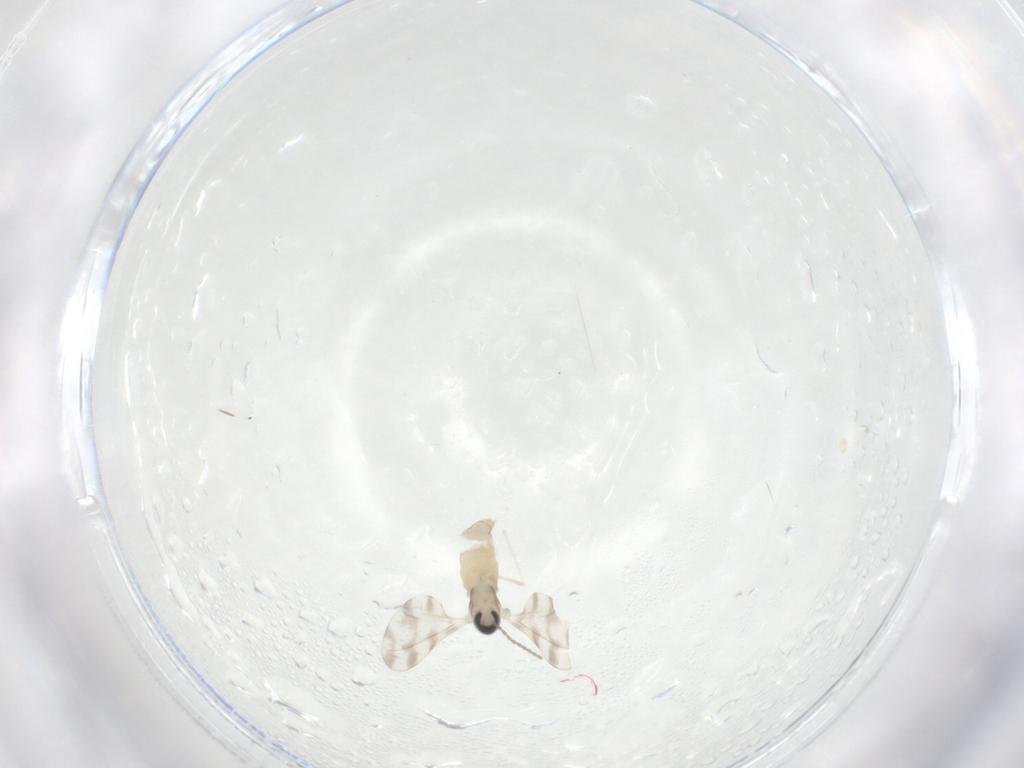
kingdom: Animalia
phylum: Arthropoda
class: Insecta
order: Diptera
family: Cecidomyiidae
